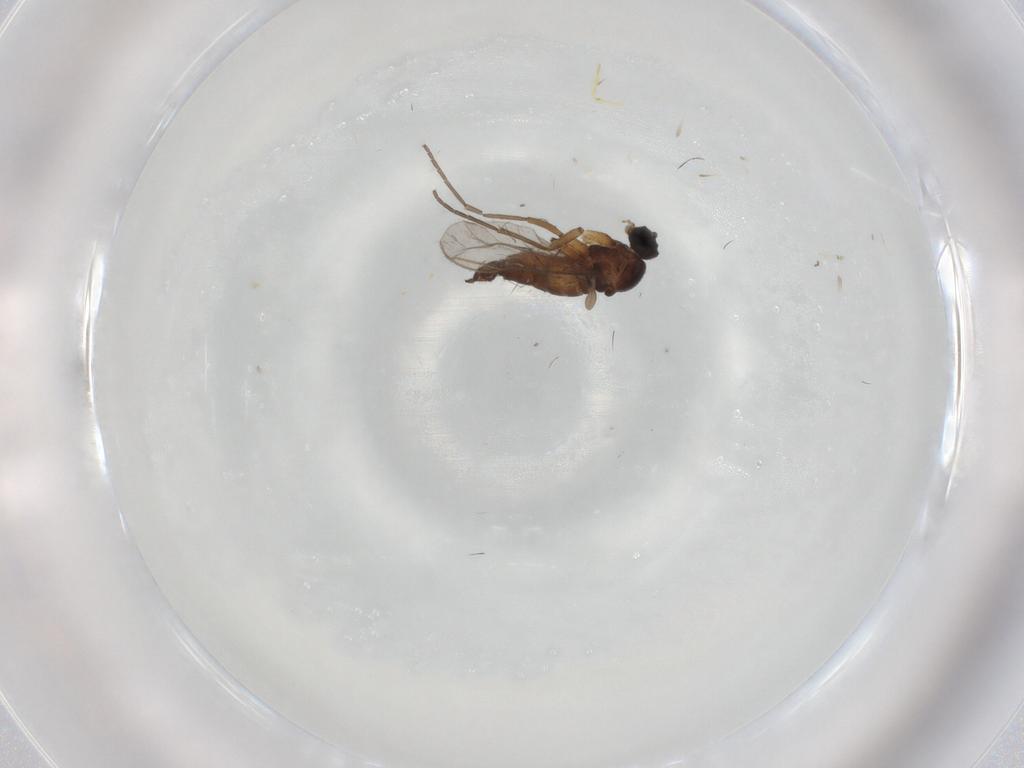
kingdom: Animalia
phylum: Arthropoda
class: Insecta
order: Diptera
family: Sciaridae
